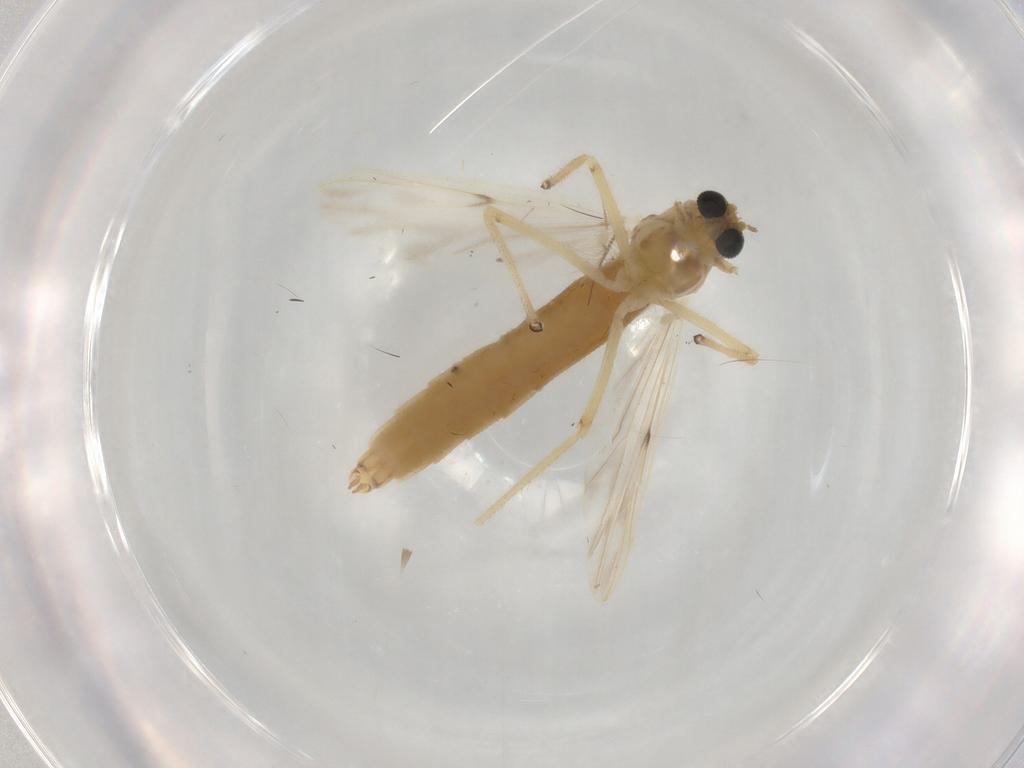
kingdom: Animalia
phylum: Arthropoda
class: Insecta
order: Diptera
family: Chironomidae
